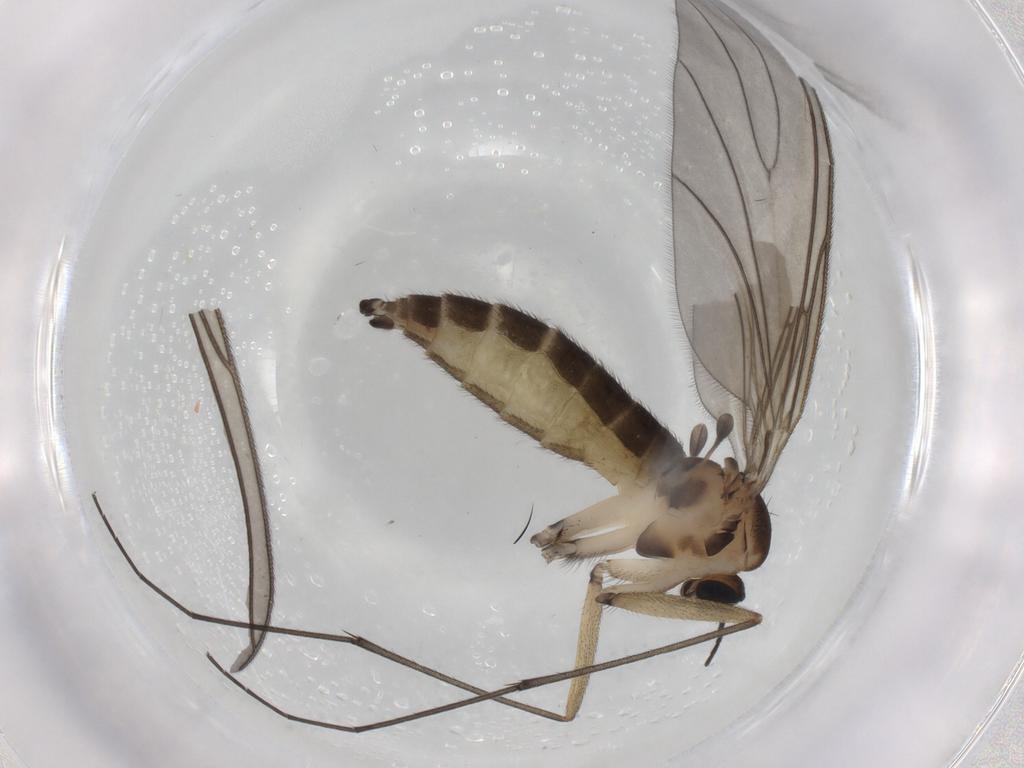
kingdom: Animalia
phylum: Arthropoda
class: Insecta
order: Diptera
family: Sciaridae
